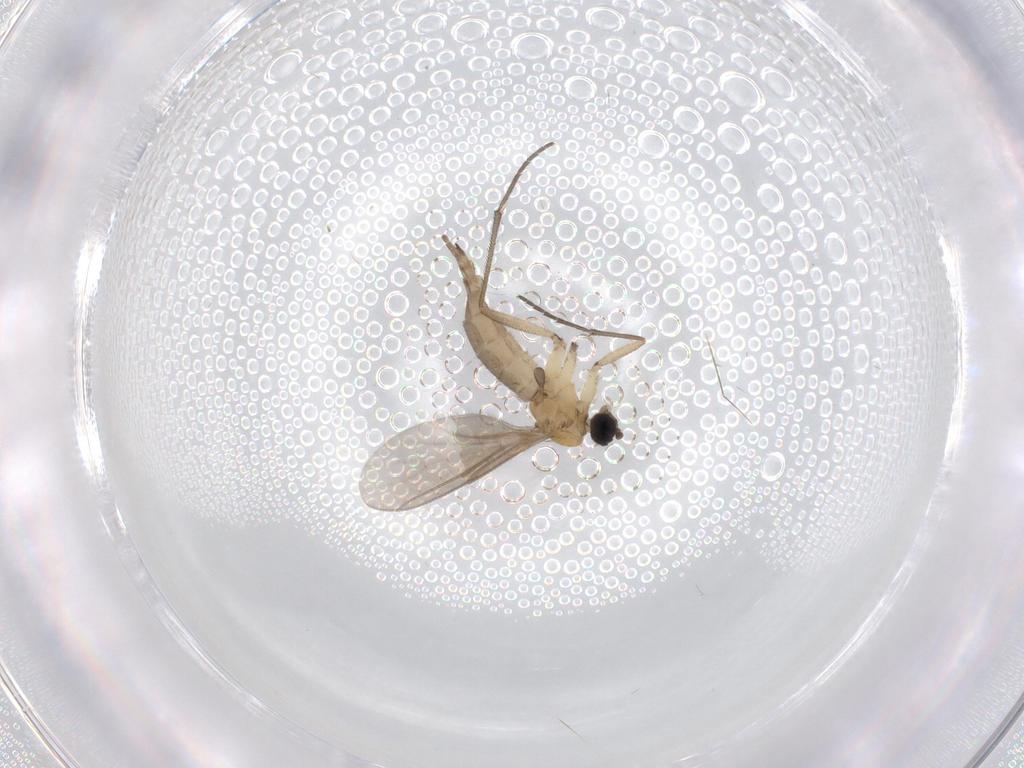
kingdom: Animalia
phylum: Arthropoda
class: Insecta
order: Diptera
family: Sciaridae
